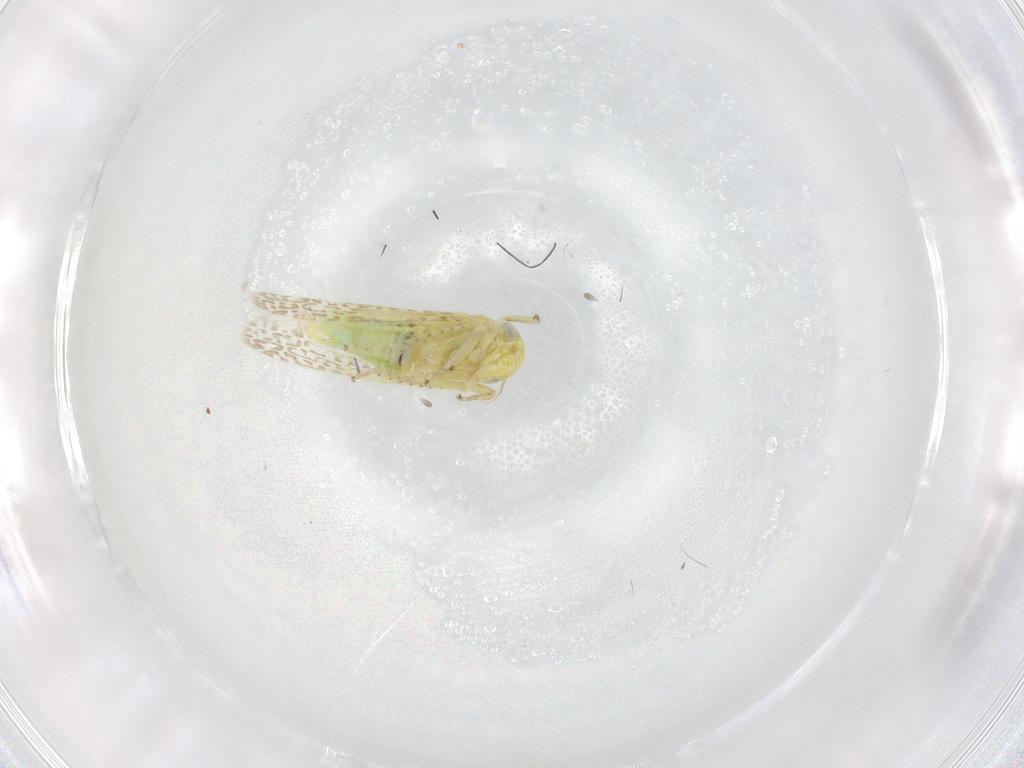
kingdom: Animalia
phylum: Arthropoda
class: Insecta
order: Hemiptera
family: Cicadellidae
